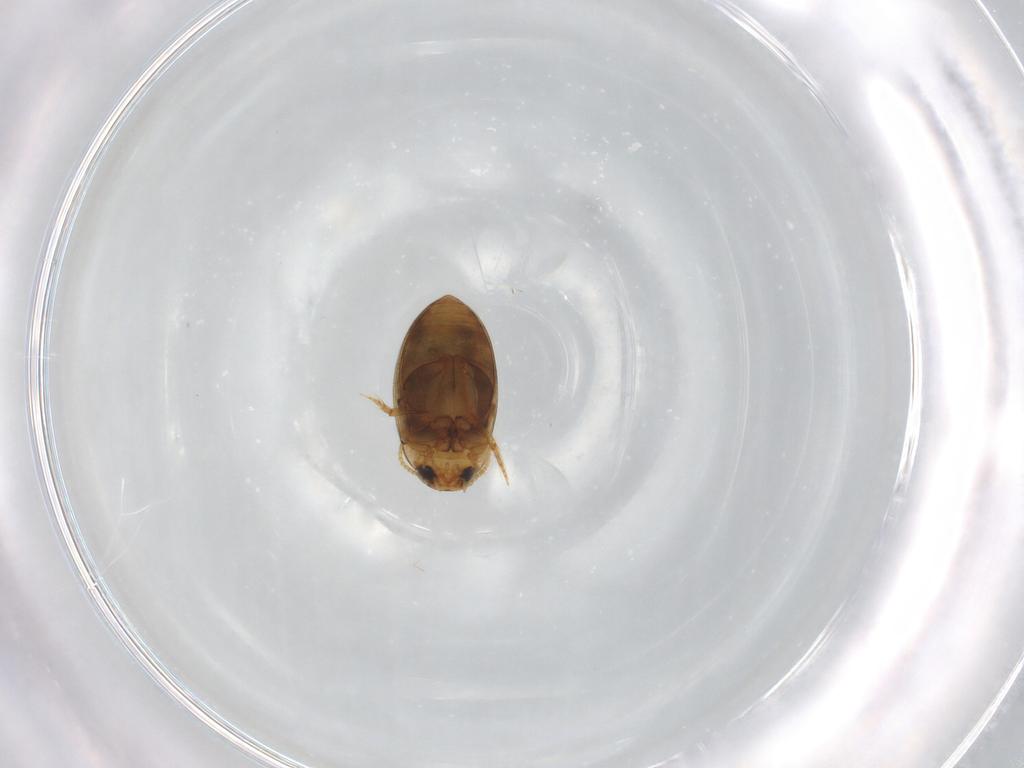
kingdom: Animalia
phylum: Arthropoda
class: Insecta
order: Coleoptera
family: Dytiscidae
